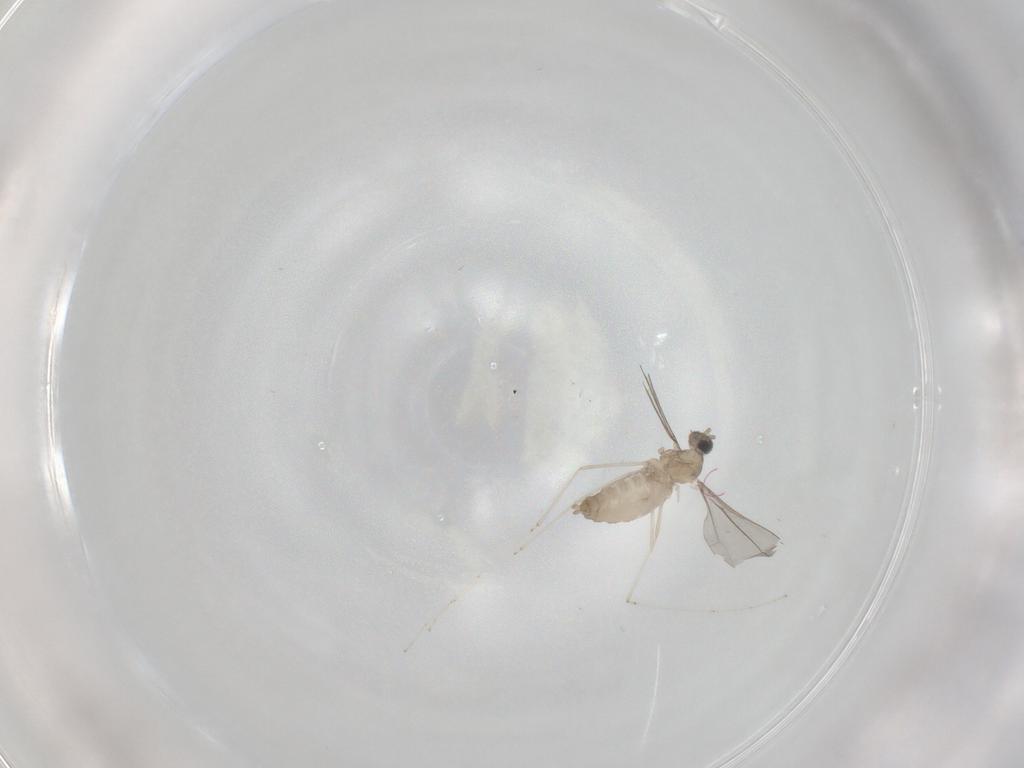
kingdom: Animalia
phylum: Arthropoda
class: Insecta
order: Diptera
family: Cecidomyiidae
